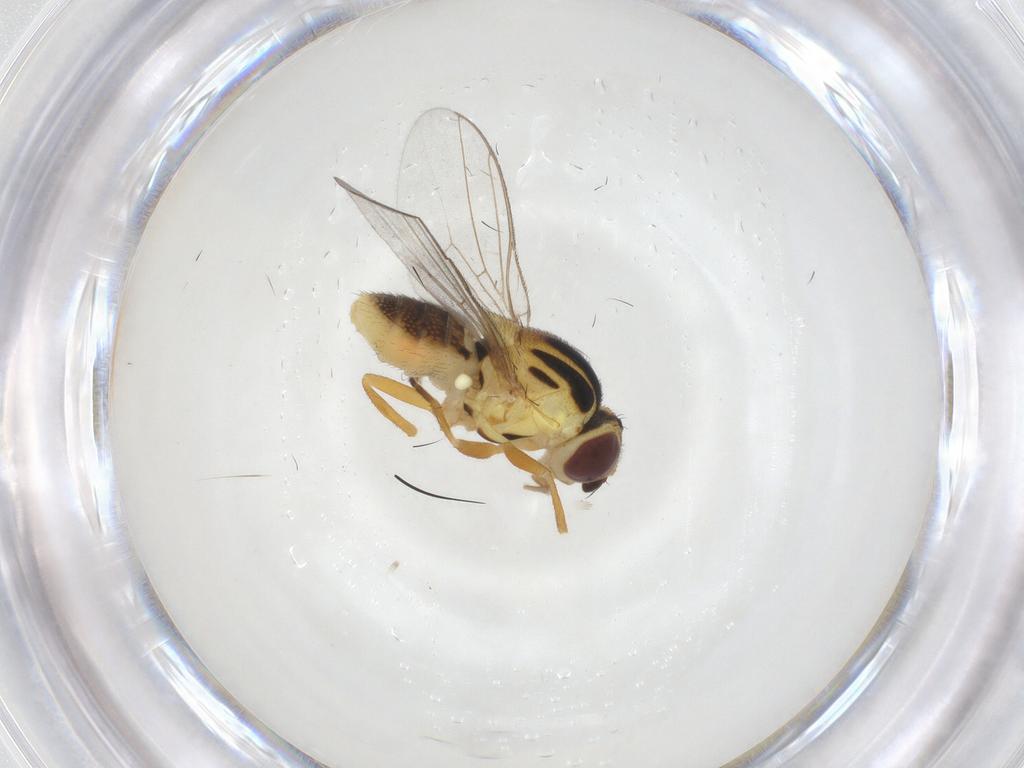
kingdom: Animalia
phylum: Arthropoda
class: Insecta
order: Diptera
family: Chloropidae
